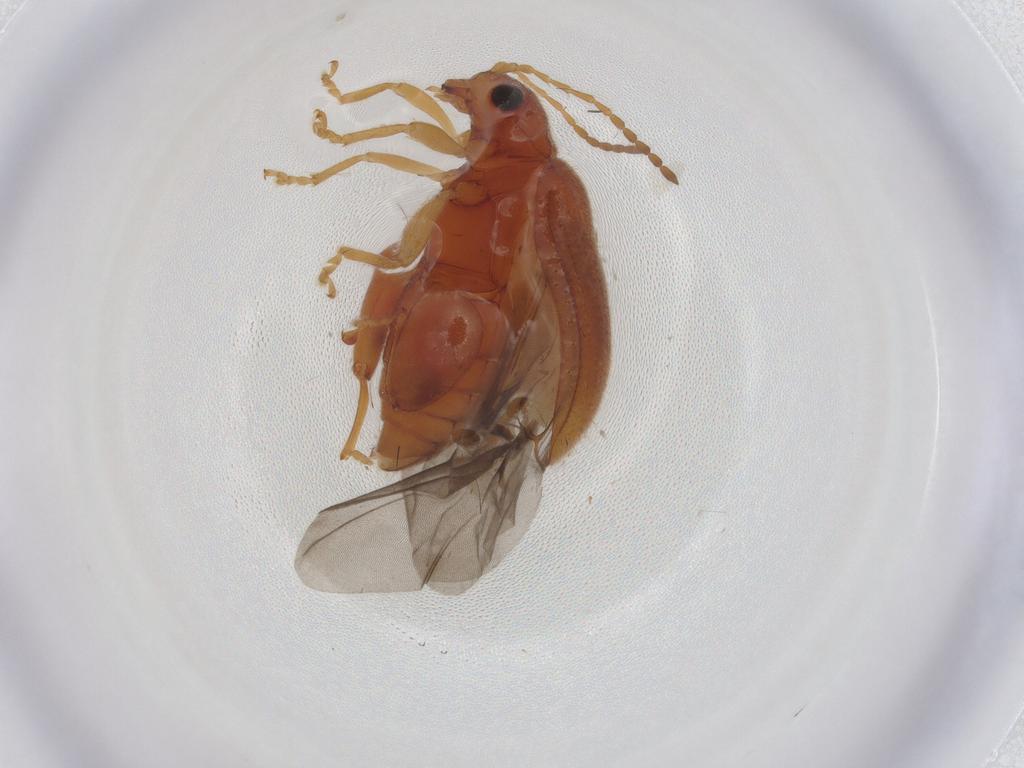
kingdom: Animalia
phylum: Arthropoda
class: Insecta
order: Coleoptera
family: Chrysomelidae
